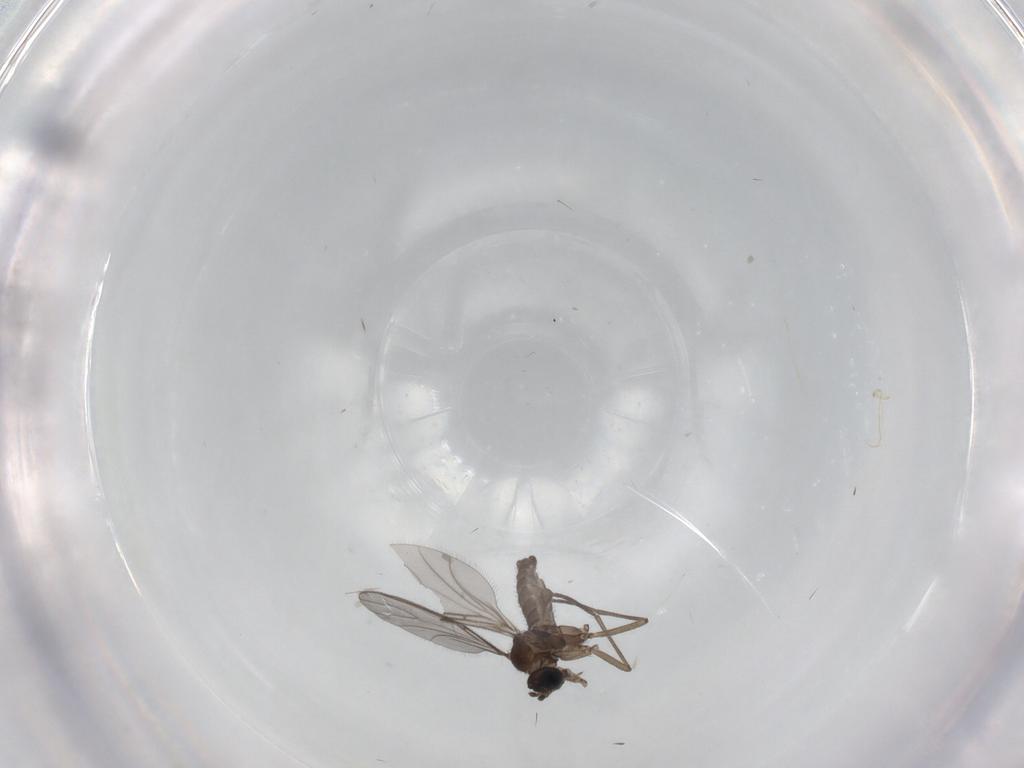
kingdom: Animalia
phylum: Arthropoda
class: Insecta
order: Diptera
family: Sciaridae
